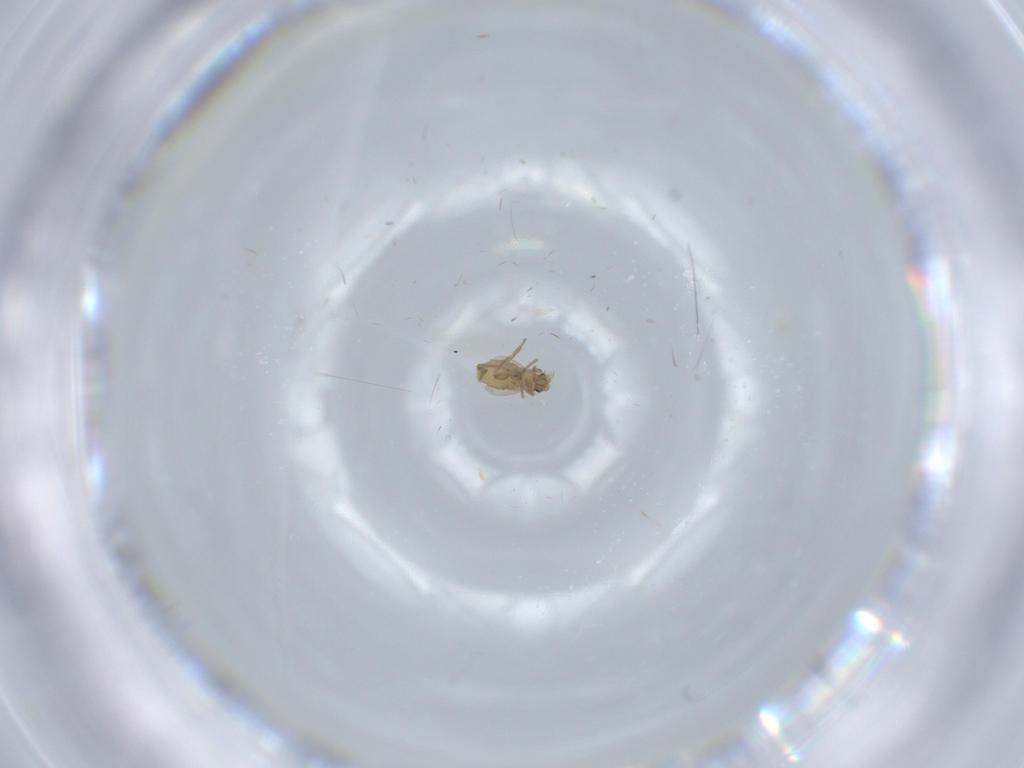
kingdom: Animalia
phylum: Arthropoda
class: Insecta
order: Diptera
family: Phoridae
